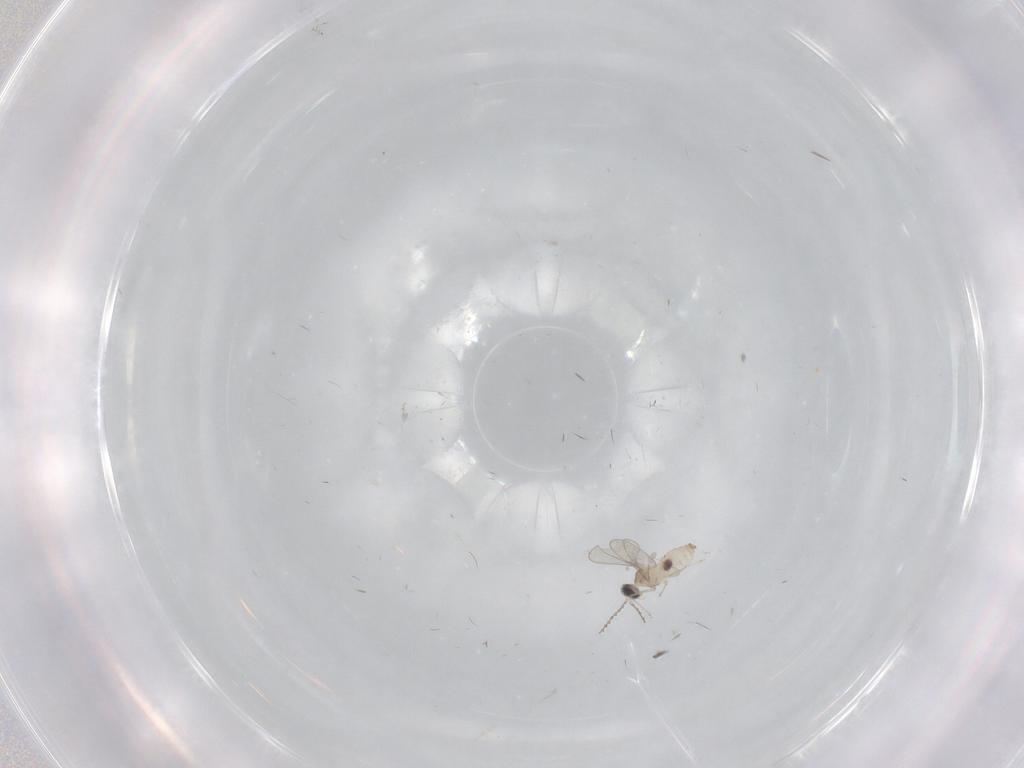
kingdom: Animalia
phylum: Arthropoda
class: Insecta
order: Diptera
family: Cecidomyiidae
